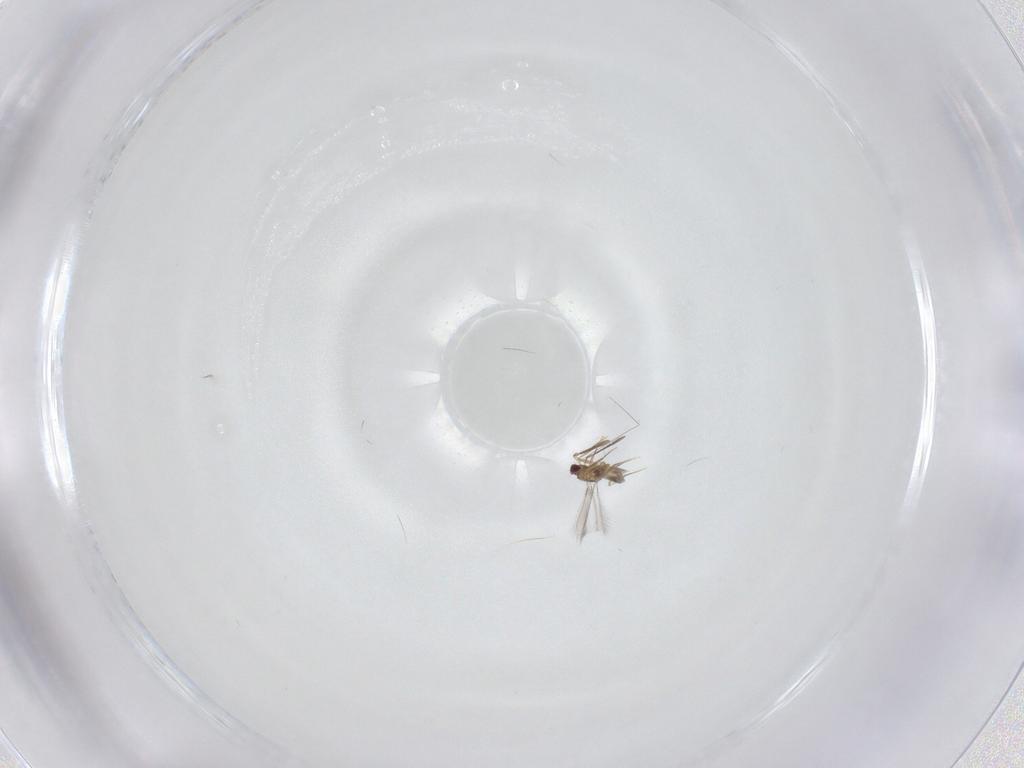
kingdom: Animalia
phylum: Arthropoda
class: Insecta
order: Hymenoptera
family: Mymaridae
